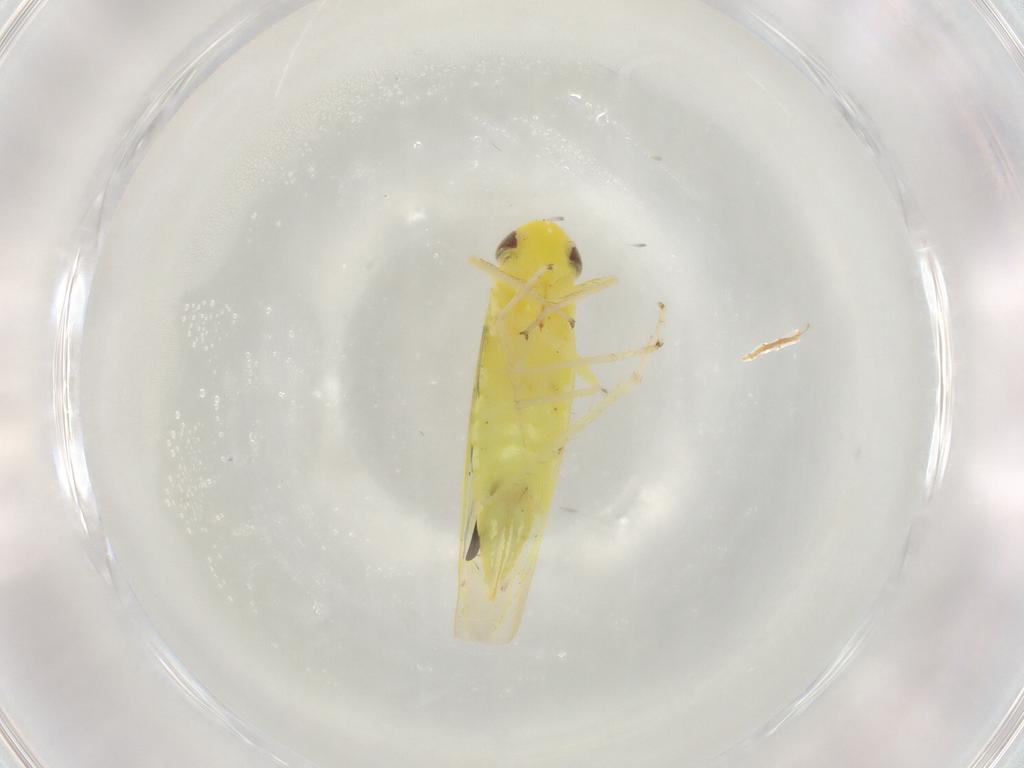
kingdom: Animalia
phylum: Arthropoda
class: Insecta
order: Hemiptera
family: Cicadellidae
